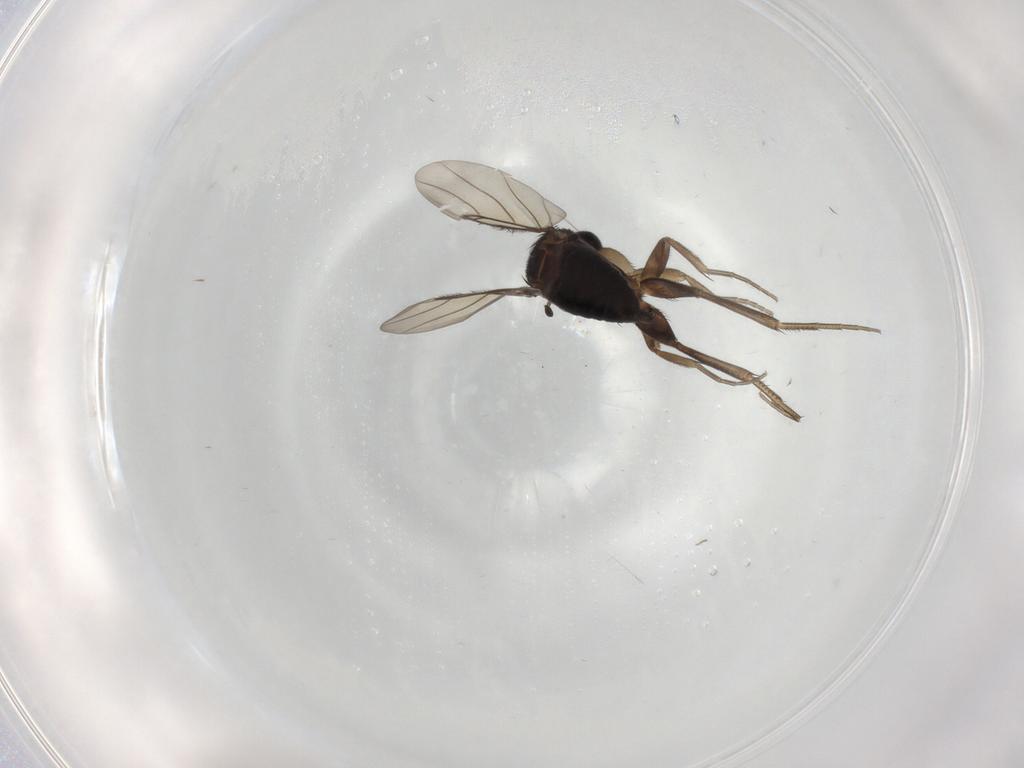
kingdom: Animalia
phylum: Arthropoda
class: Insecta
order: Diptera
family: Phoridae
